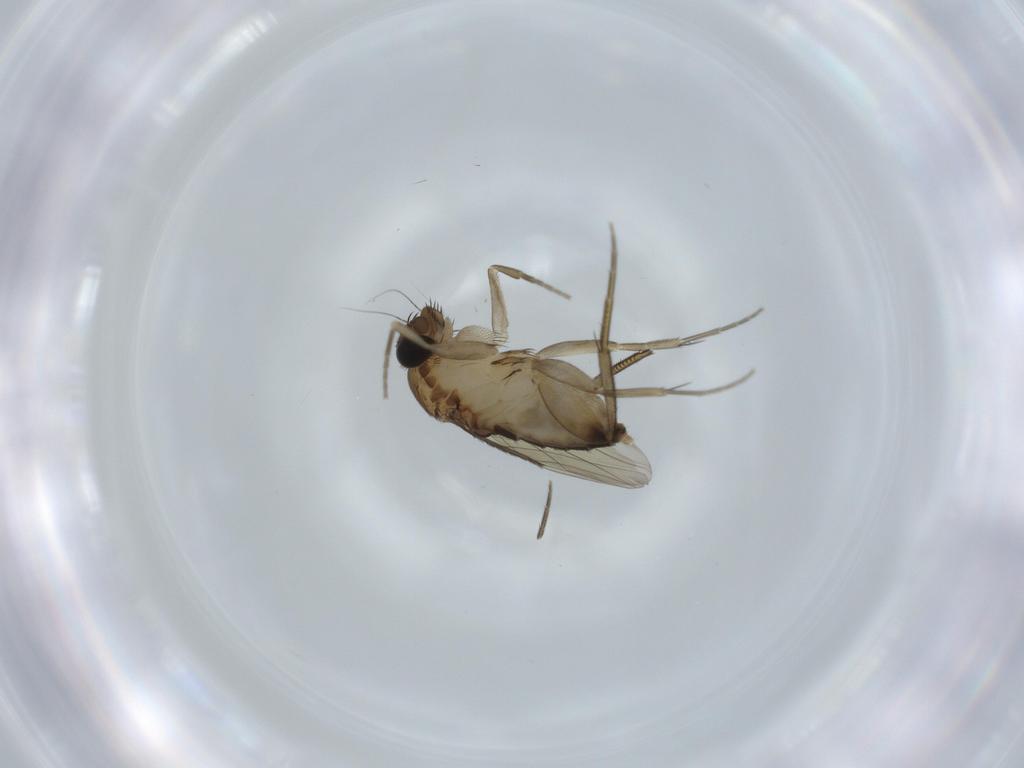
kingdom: Animalia
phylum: Arthropoda
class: Insecta
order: Diptera
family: Phoridae
